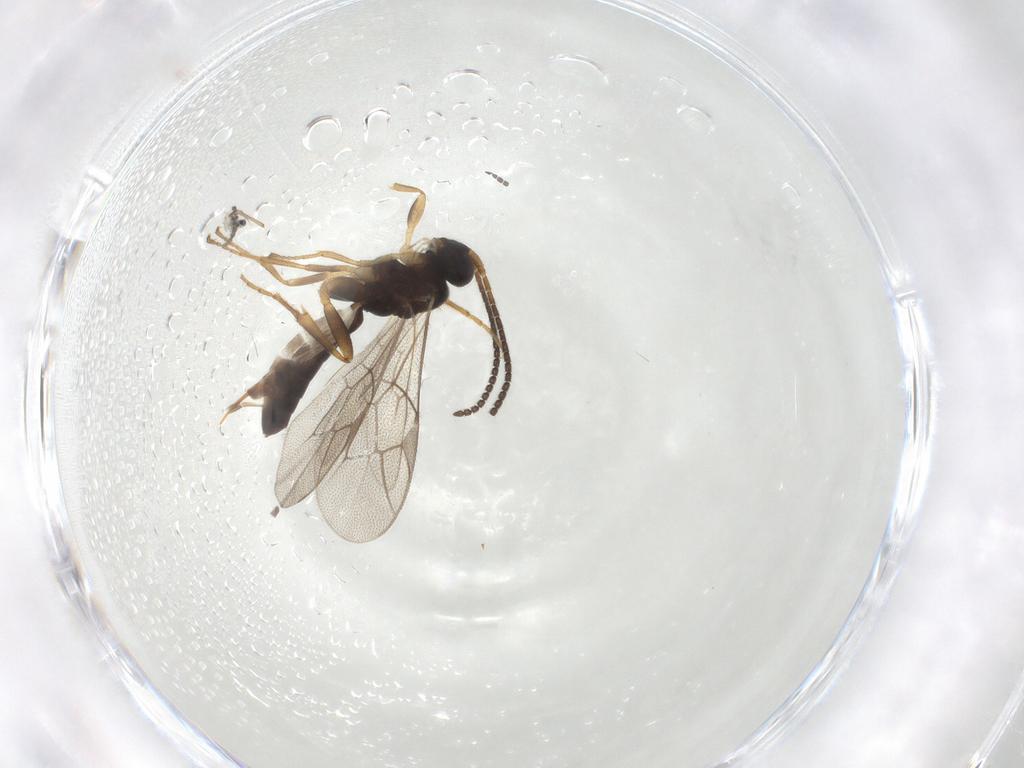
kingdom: Animalia
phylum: Arthropoda
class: Insecta
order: Hymenoptera
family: Ichneumonidae
